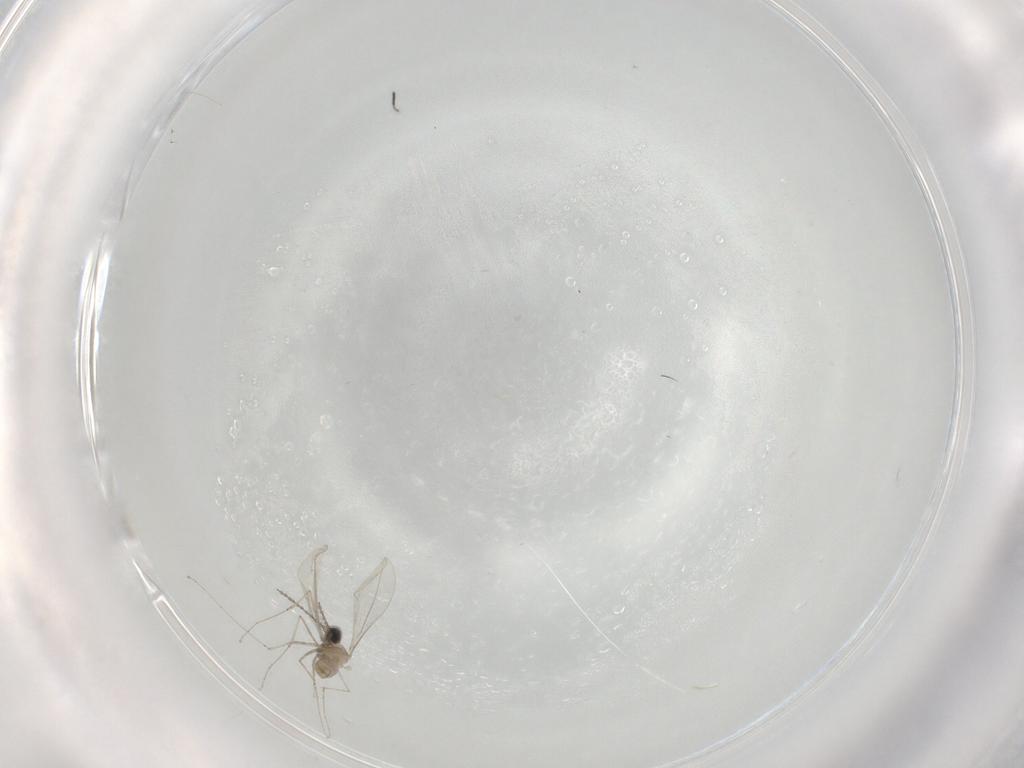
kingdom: Animalia
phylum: Arthropoda
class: Insecta
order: Diptera
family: Cecidomyiidae
